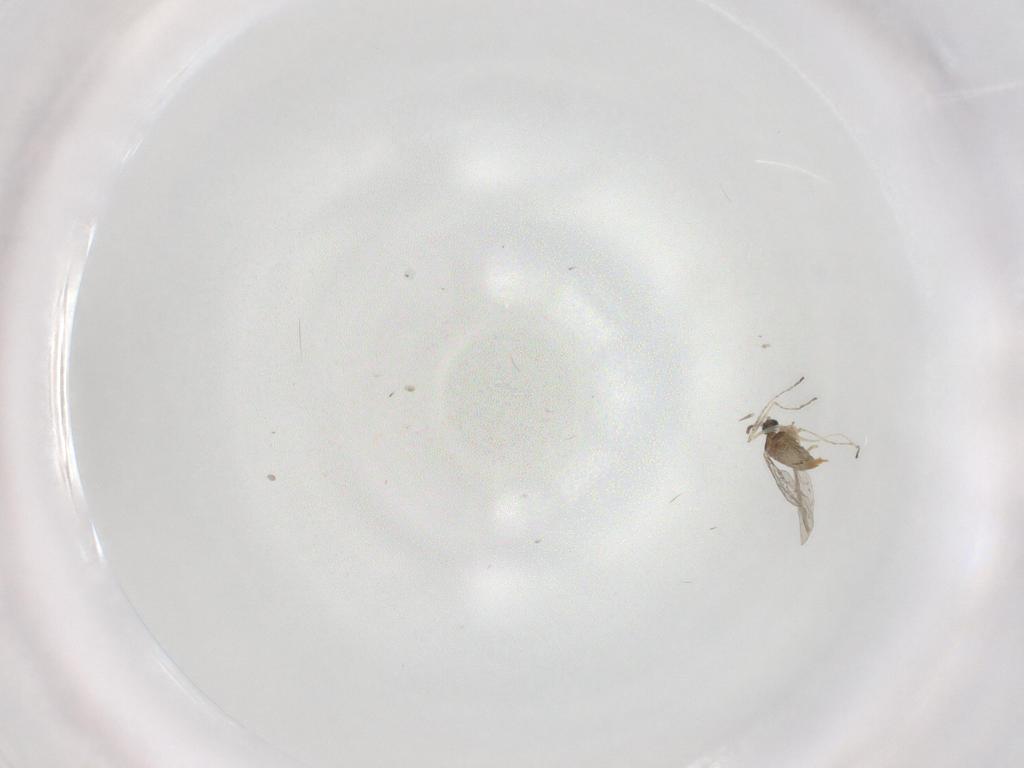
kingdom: Animalia
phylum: Arthropoda
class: Insecta
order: Diptera
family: Cecidomyiidae
